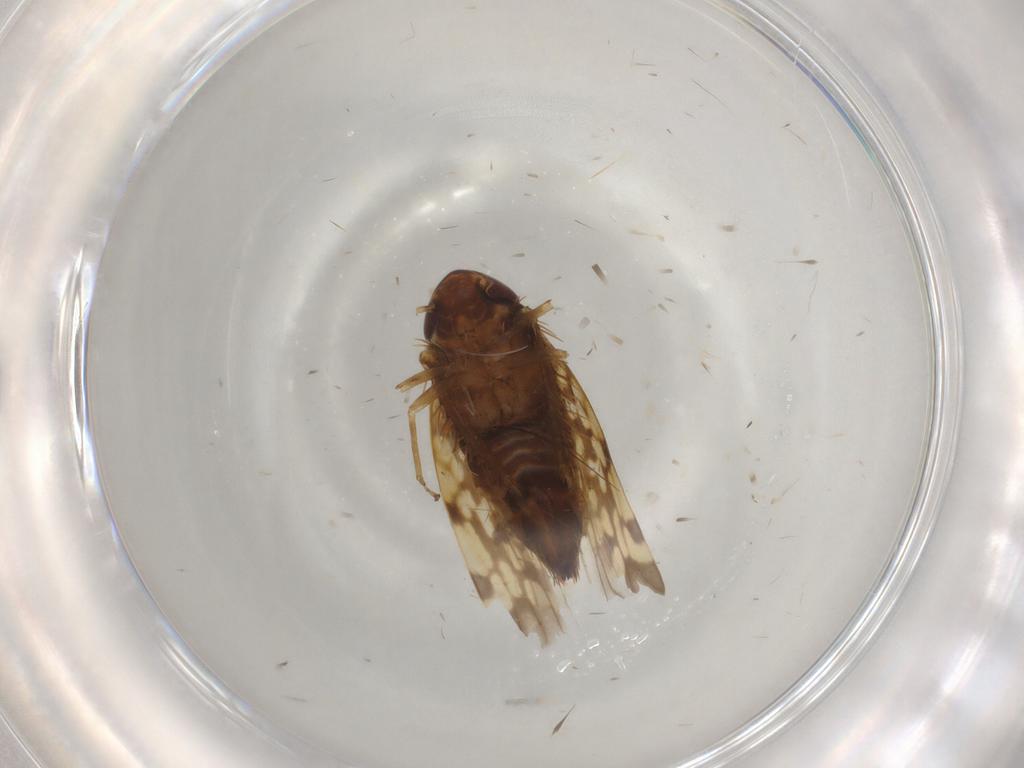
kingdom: Animalia
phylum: Arthropoda
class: Insecta
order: Hemiptera
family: Cicadellidae
